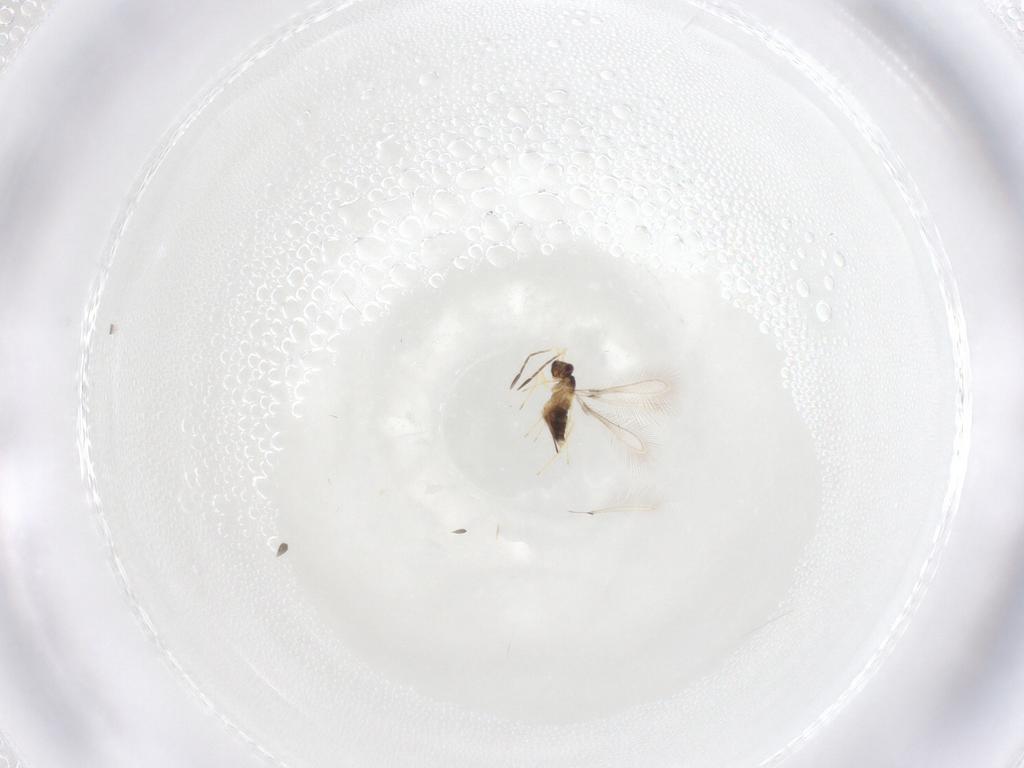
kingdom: Animalia
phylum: Arthropoda
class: Insecta
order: Hymenoptera
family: Mymaridae
